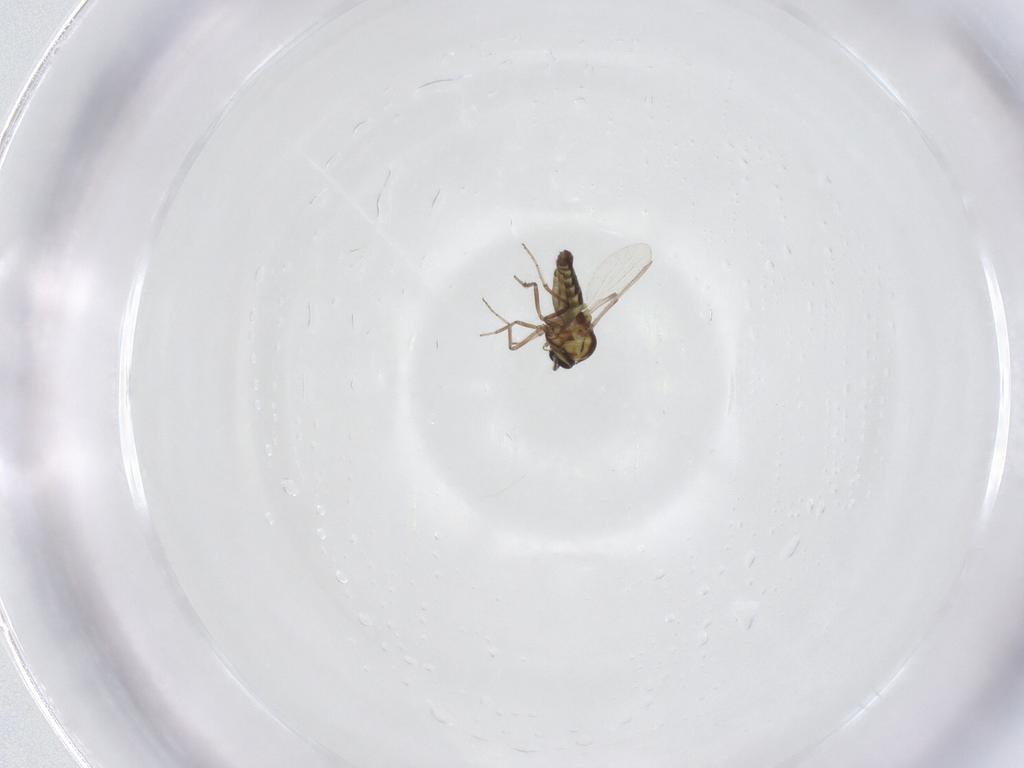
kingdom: Animalia
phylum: Arthropoda
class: Insecta
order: Diptera
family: Ceratopogonidae
